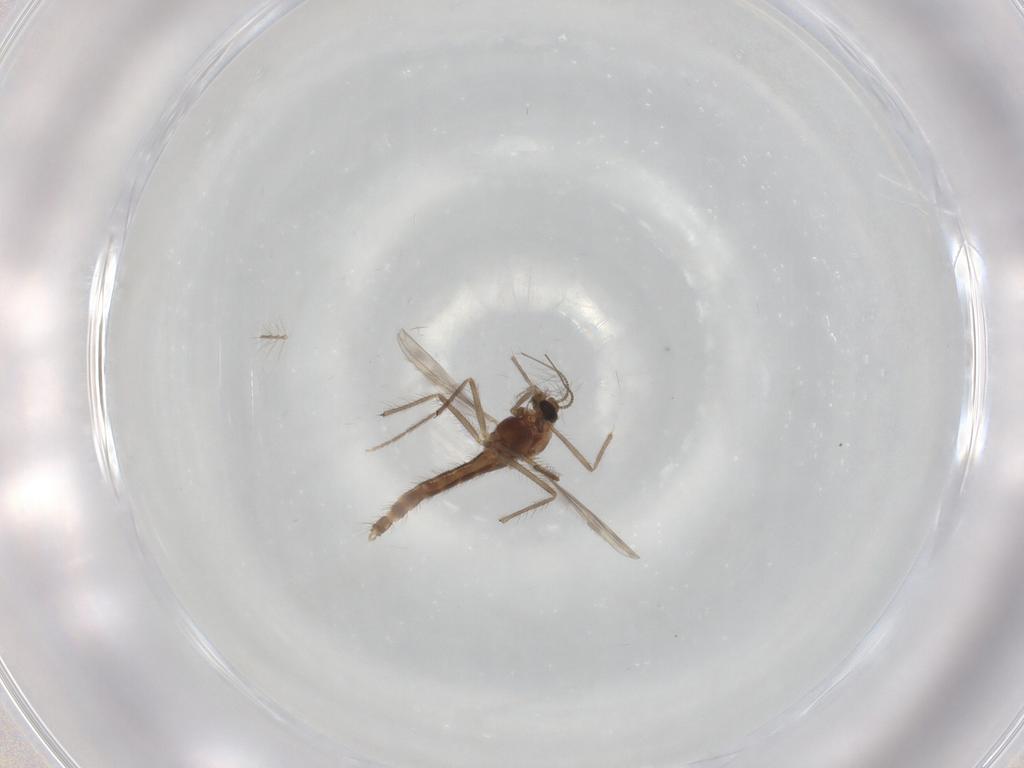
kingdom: Animalia
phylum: Arthropoda
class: Insecta
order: Diptera
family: Chironomidae
